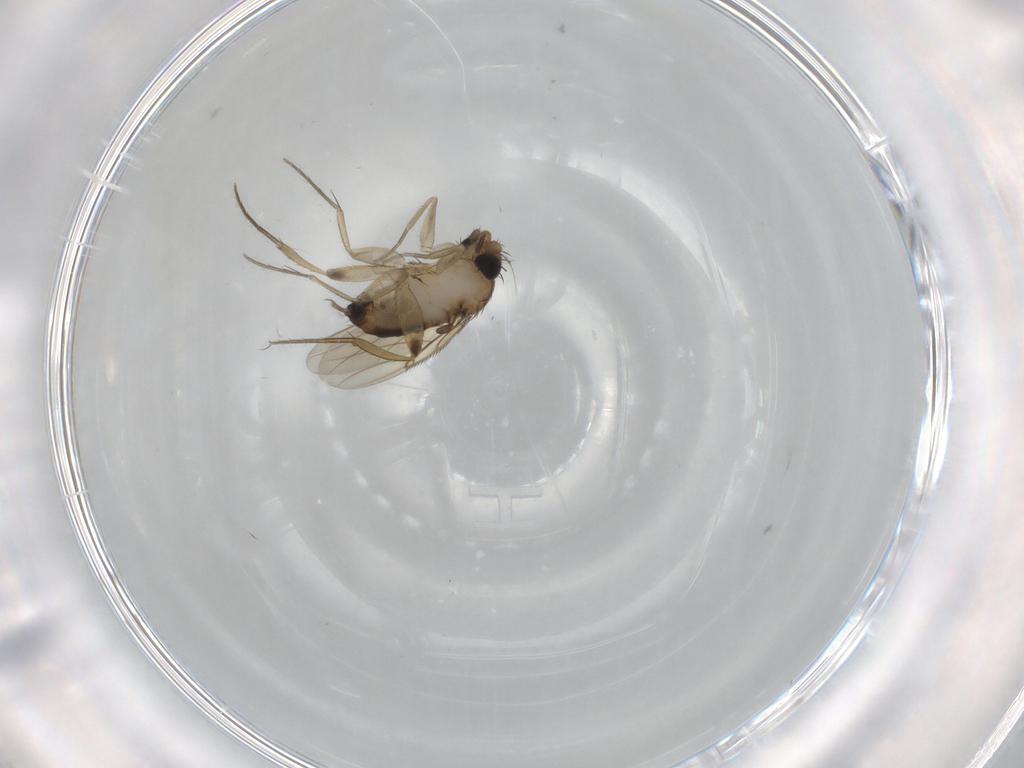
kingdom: Animalia
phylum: Arthropoda
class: Insecta
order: Diptera
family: Phoridae
